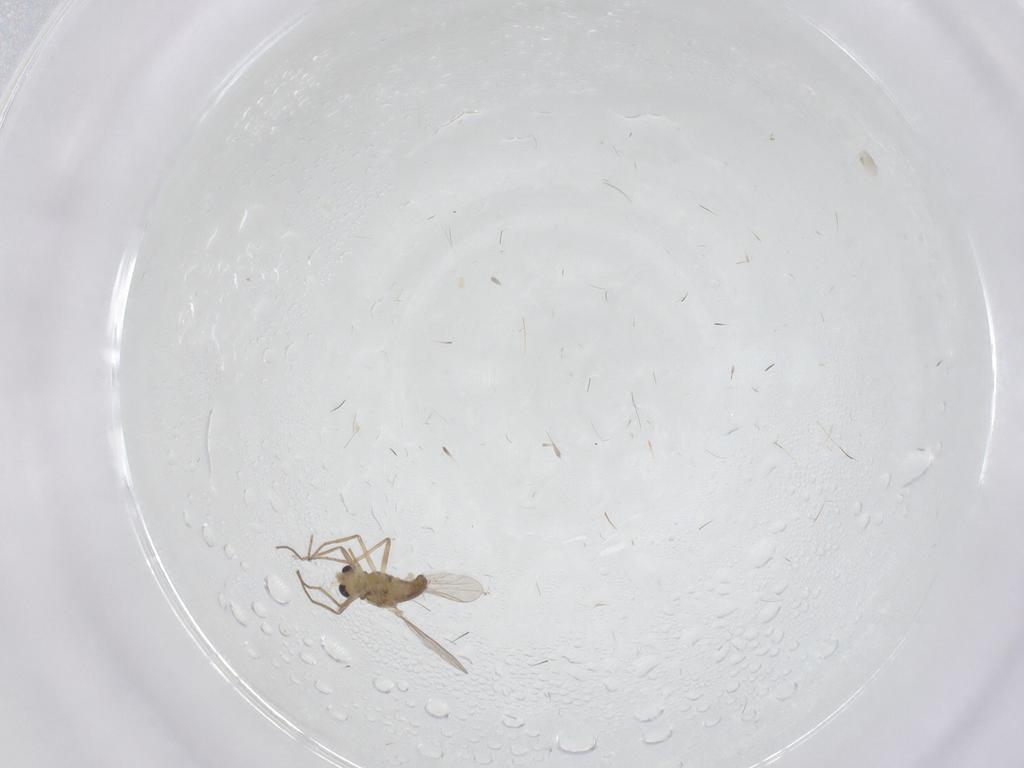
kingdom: Animalia
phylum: Arthropoda
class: Insecta
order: Diptera
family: Chironomidae
